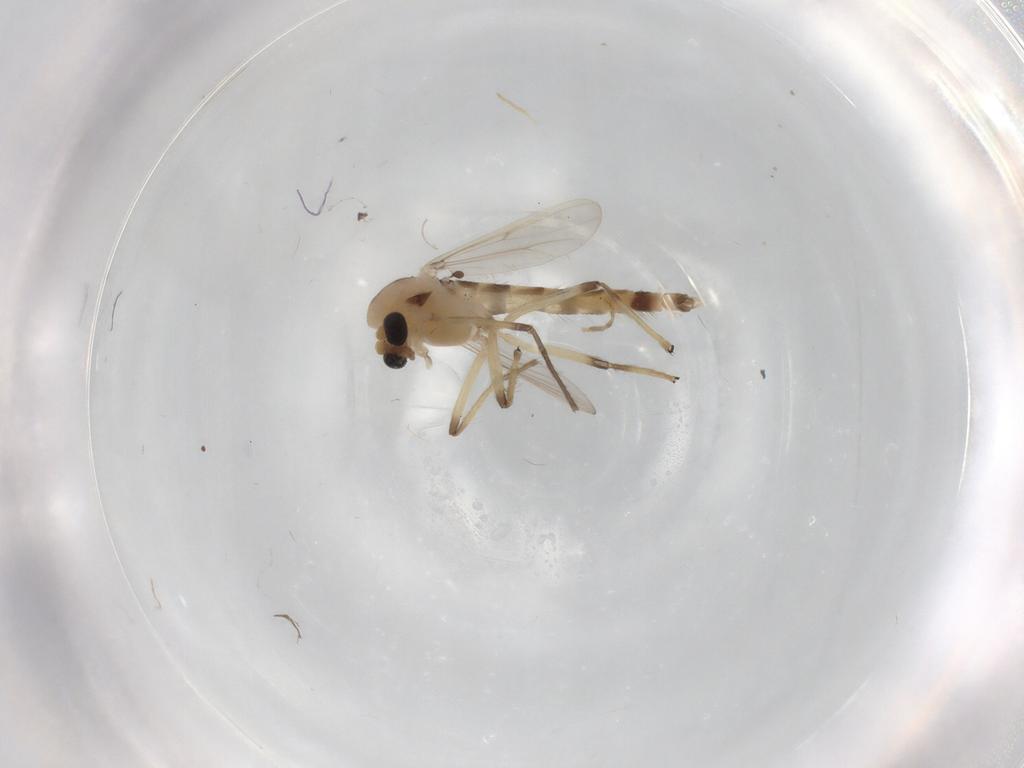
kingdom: Animalia
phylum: Arthropoda
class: Insecta
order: Diptera
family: Chironomidae
